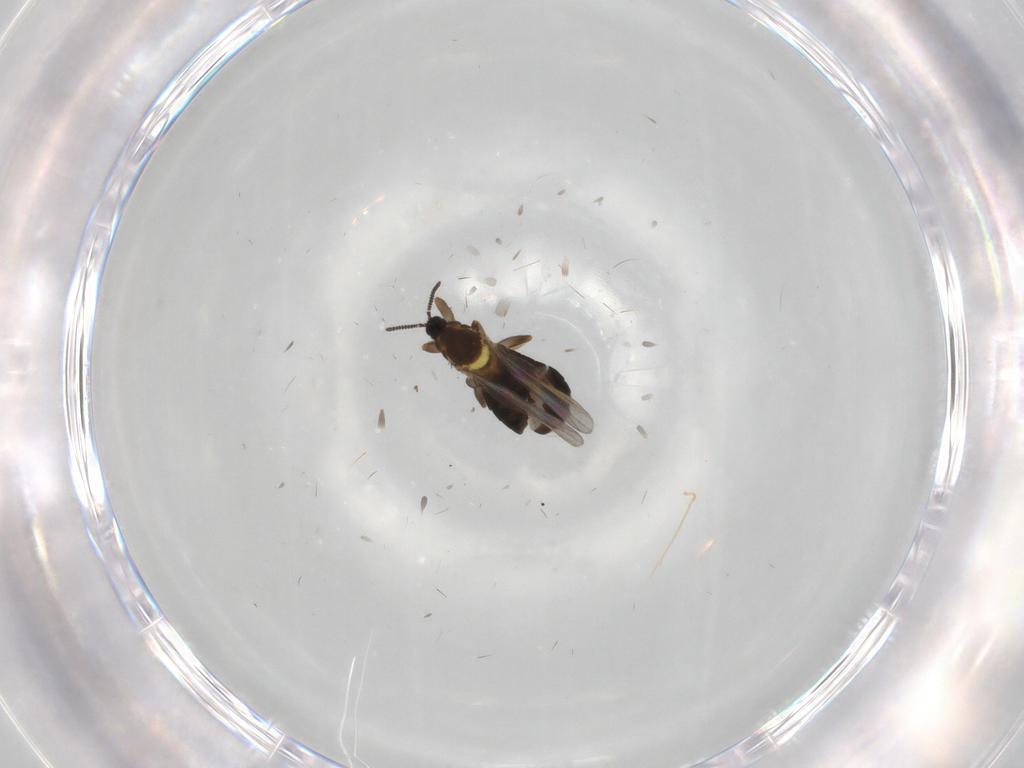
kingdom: Animalia
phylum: Arthropoda
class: Insecta
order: Diptera
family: Scatopsidae
